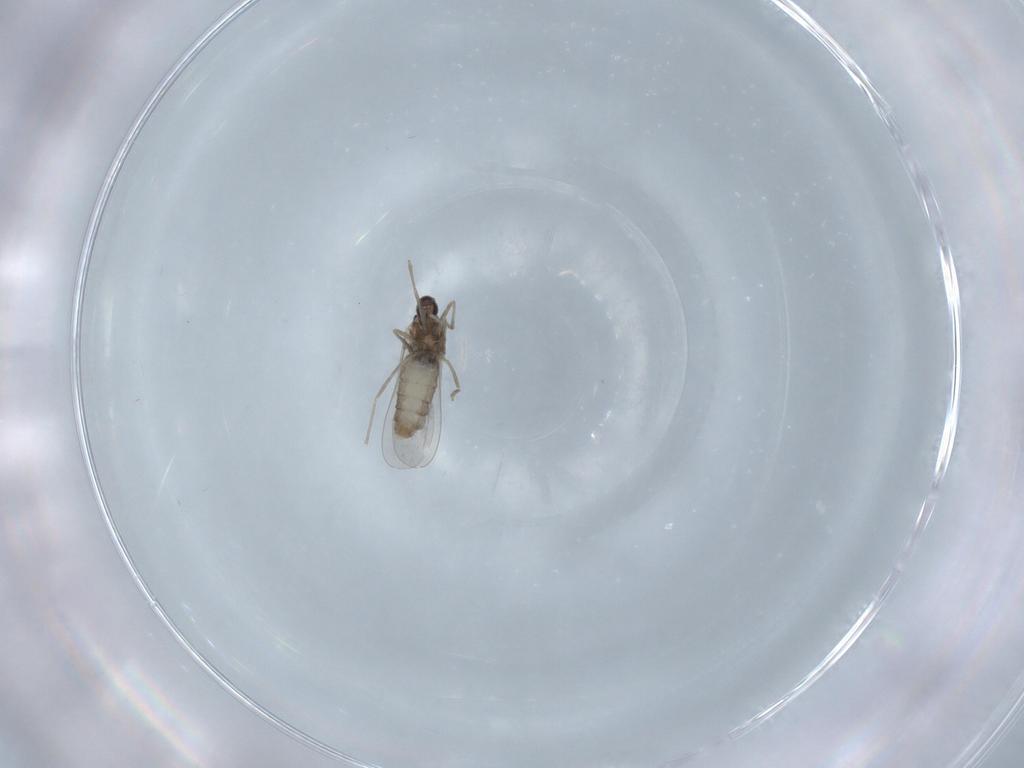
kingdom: Animalia
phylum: Arthropoda
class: Insecta
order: Diptera
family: Cecidomyiidae
